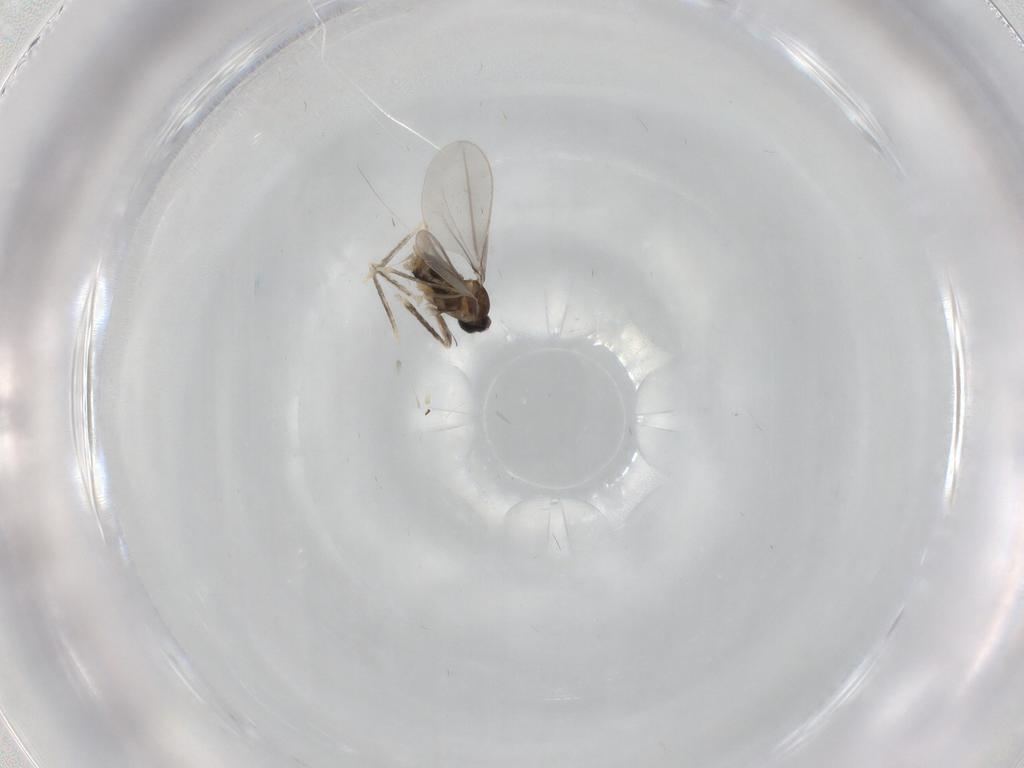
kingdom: Animalia
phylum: Arthropoda
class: Insecta
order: Diptera
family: Cecidomyiidae
